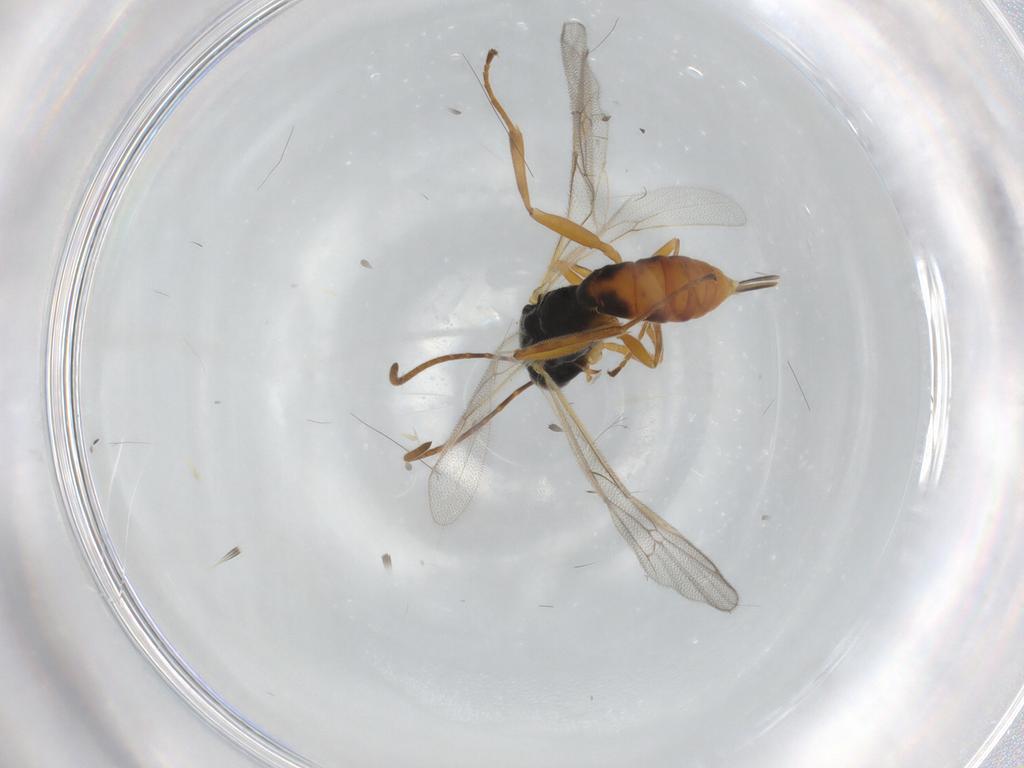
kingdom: Animalia
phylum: Arthropoda
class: Insecta
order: Hymenoptera
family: Ichneumonidae
